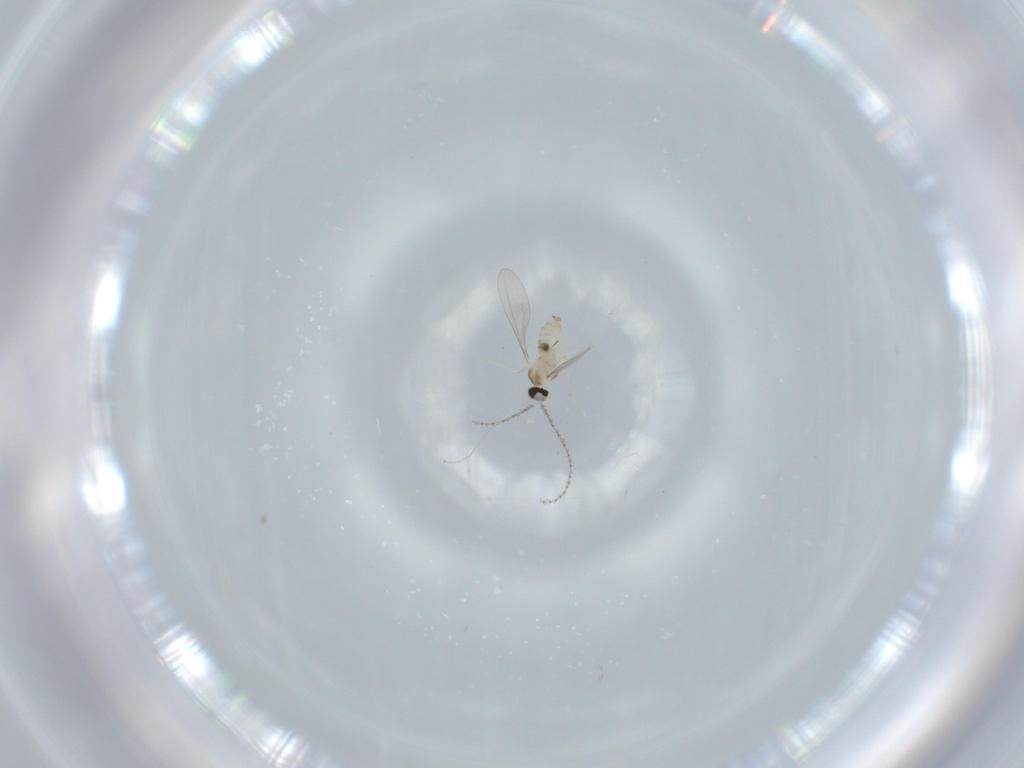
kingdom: Animalia
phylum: Arthropoda
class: Insecta
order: Diptera
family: Cecidomyiidae
